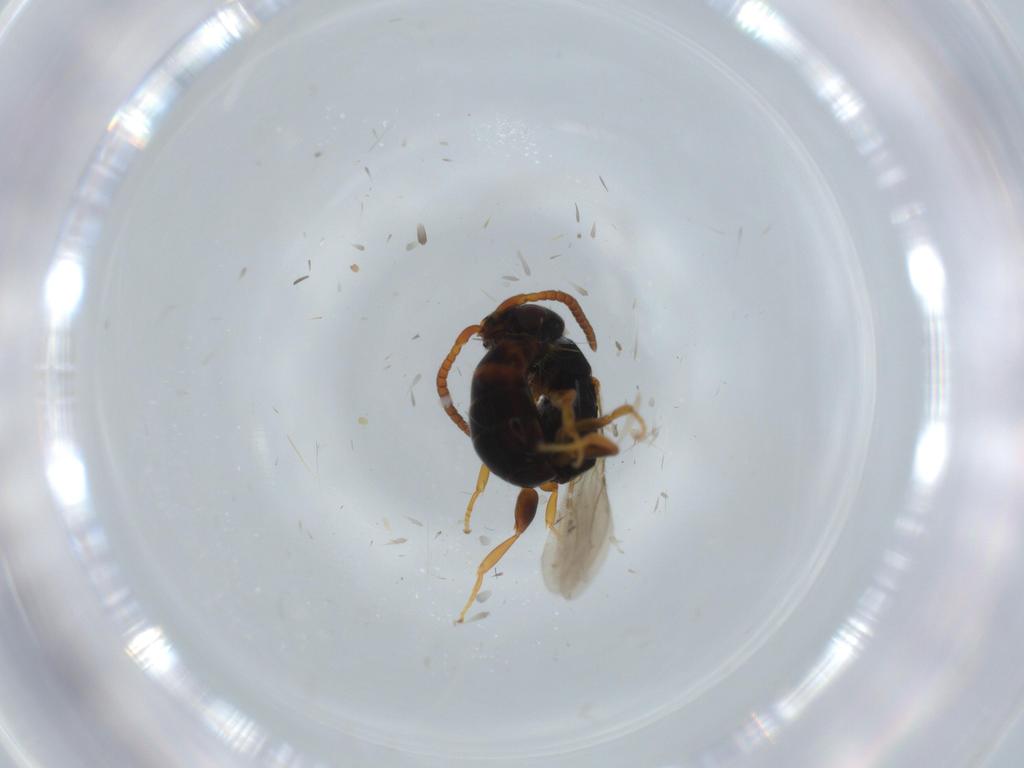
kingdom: Animalia
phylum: Arthropoda
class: Insecta
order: Hymenoptera
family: Bethylidae
